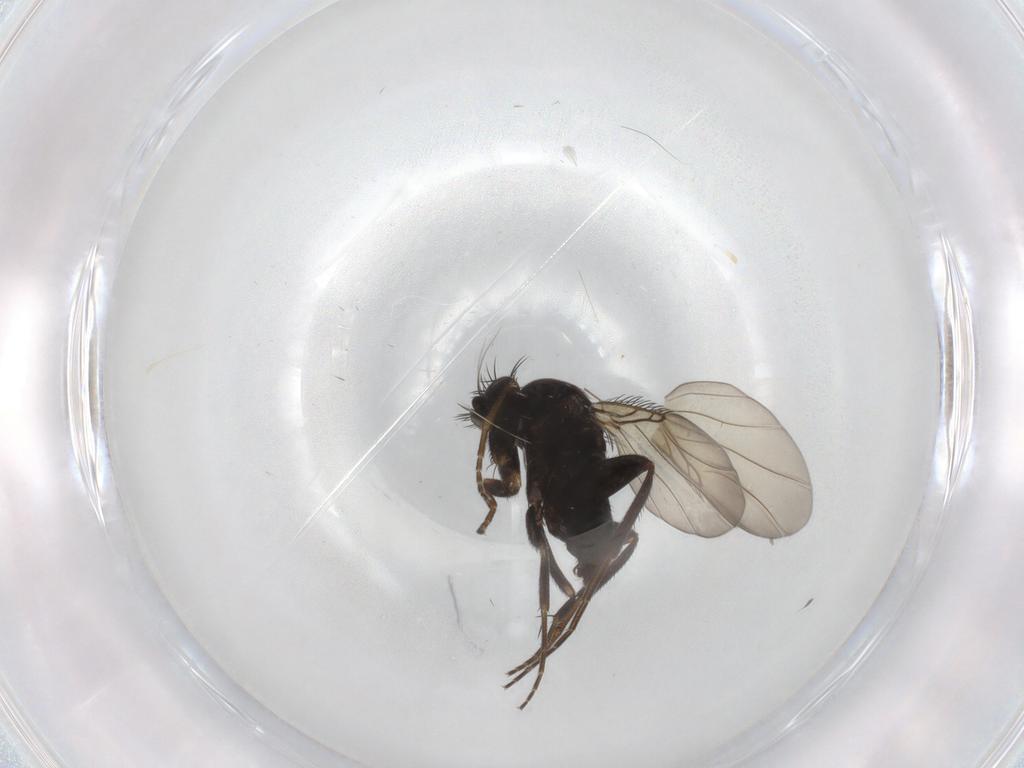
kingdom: Animalia
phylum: Arthropoda
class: Insecta
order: Diptera
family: Phoridae
